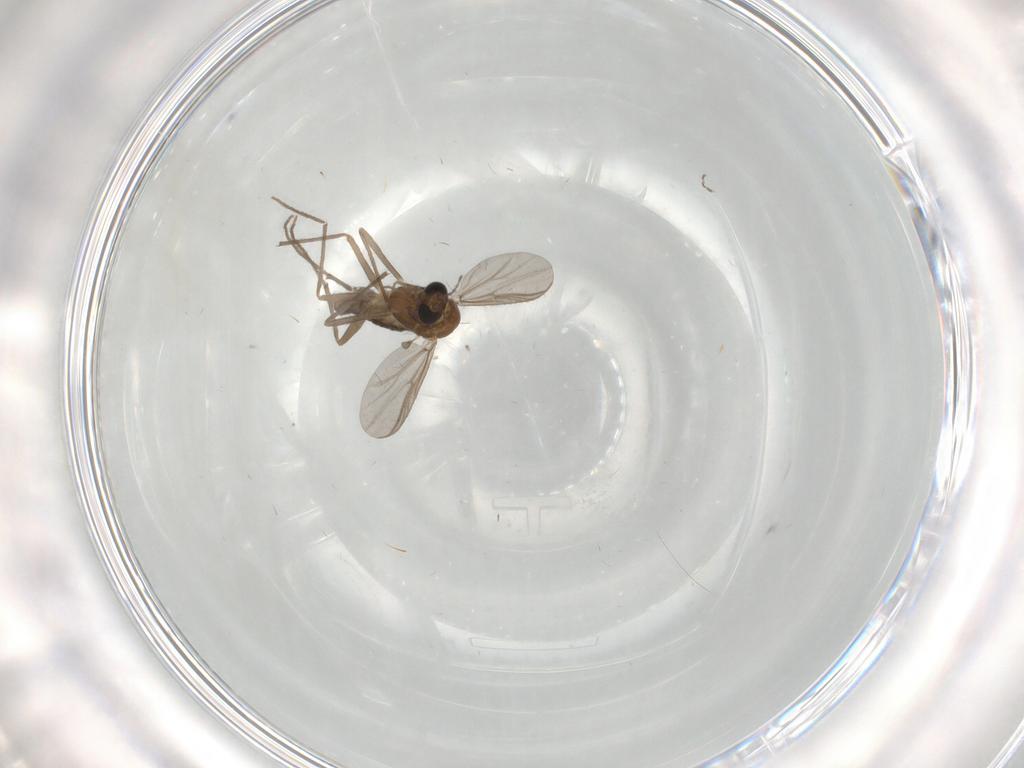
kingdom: Animalia
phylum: Arthropoda
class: Insecta
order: Diptera
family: Chironomidae
